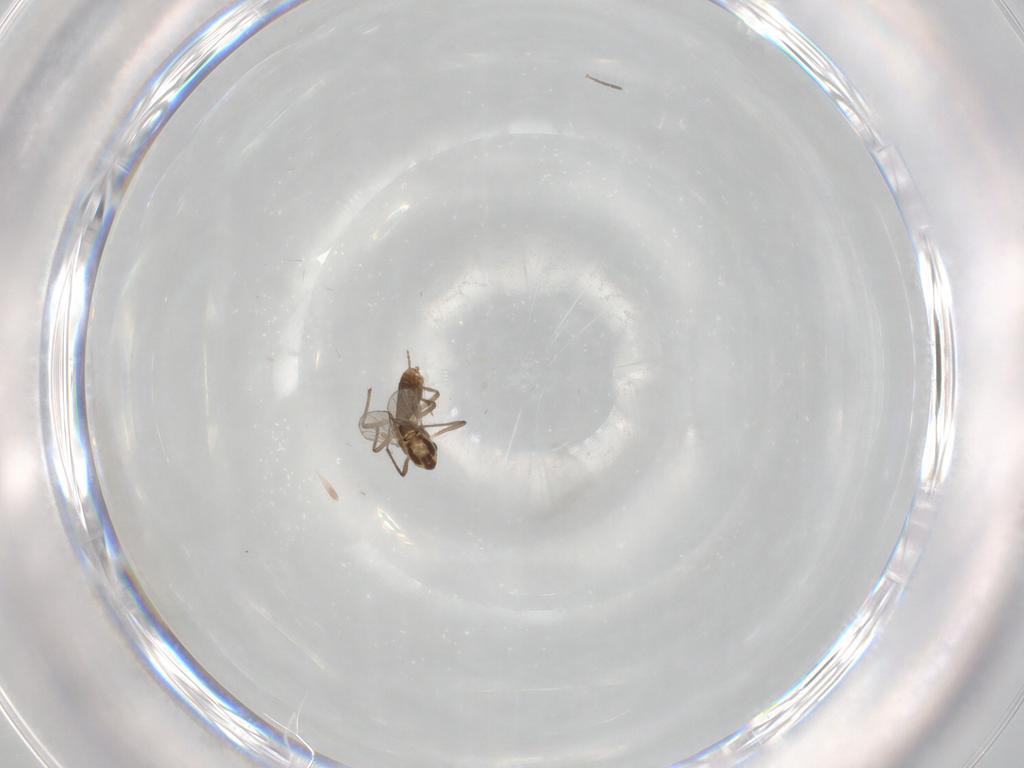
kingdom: Animalia
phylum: Arthropoda
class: Insecta
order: Diptera
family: Chironomidae
